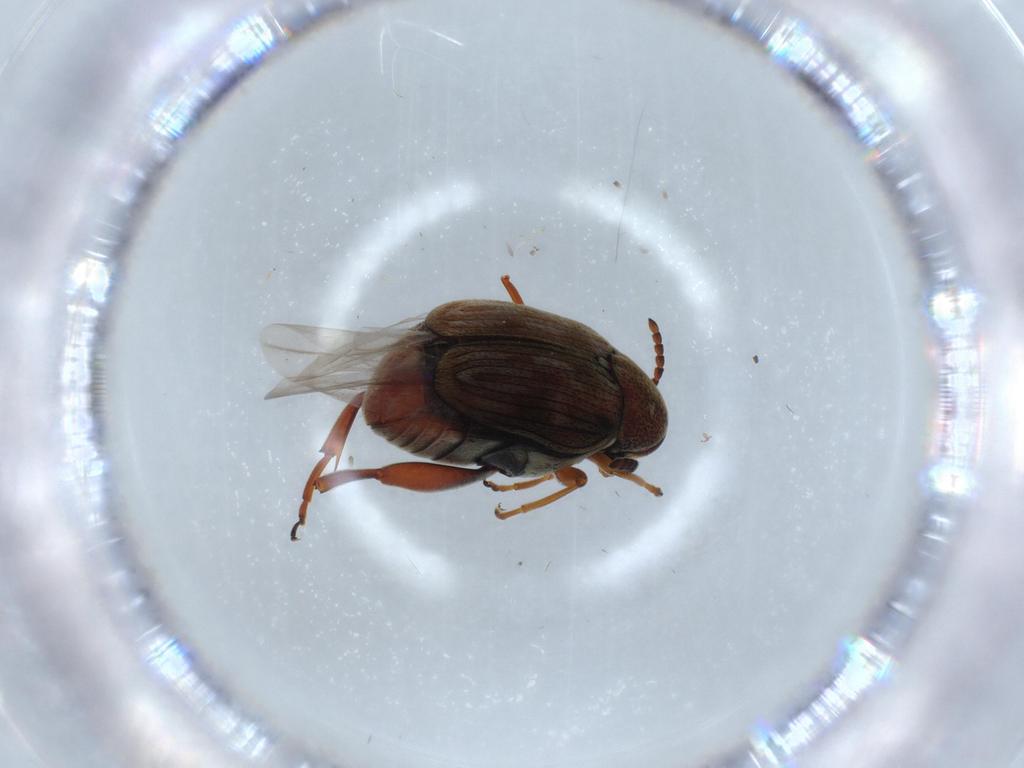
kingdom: Animalia
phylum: Arthropoda
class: Insecta
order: Coleoptera
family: Chrysomelidae
